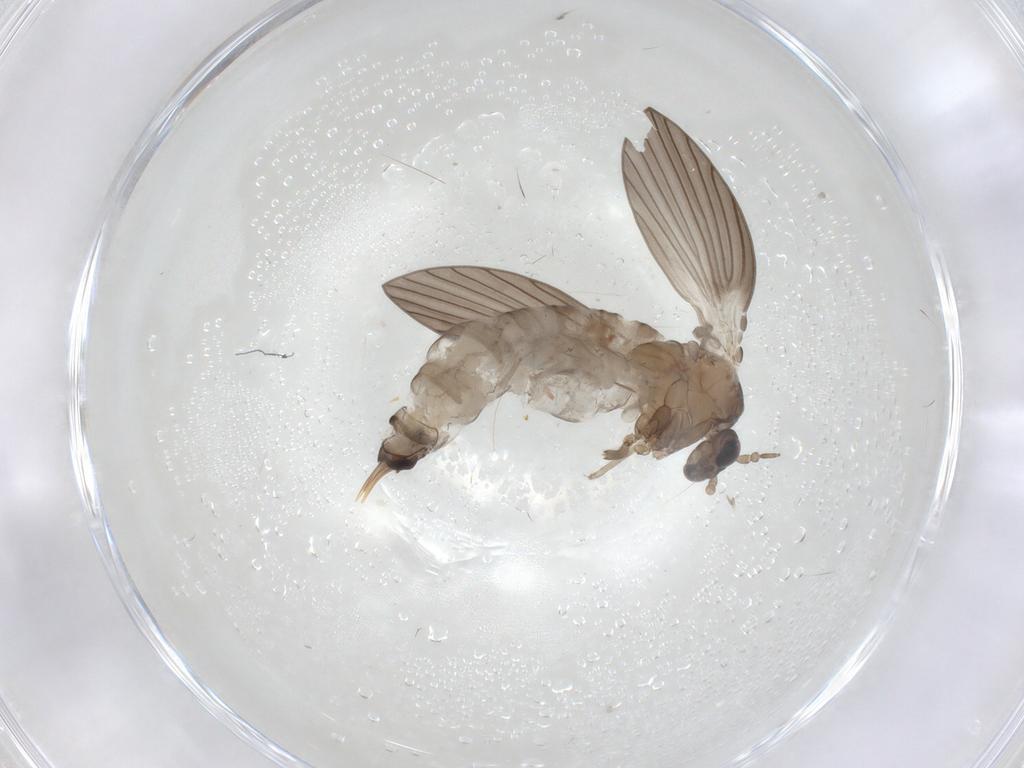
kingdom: Animalia
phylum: Arthropoda
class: Insecta
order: Diptera
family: Psychodidae
